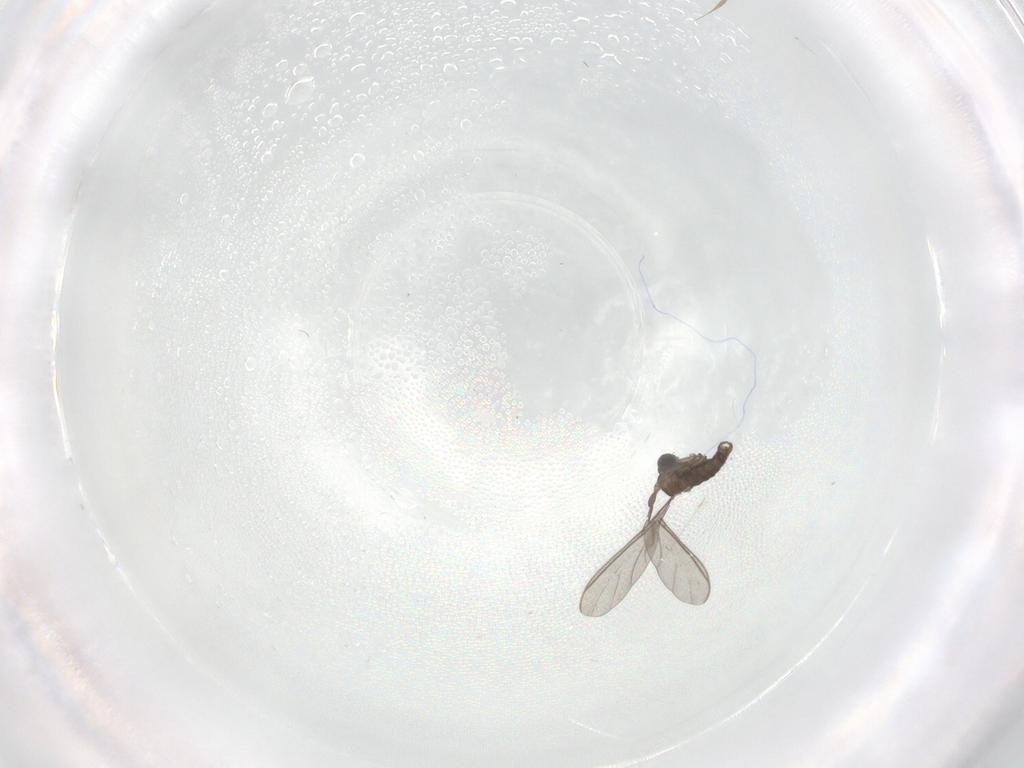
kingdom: Animalia
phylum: Arthropoda
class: Insecta
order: Diptera
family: Sciaridae
